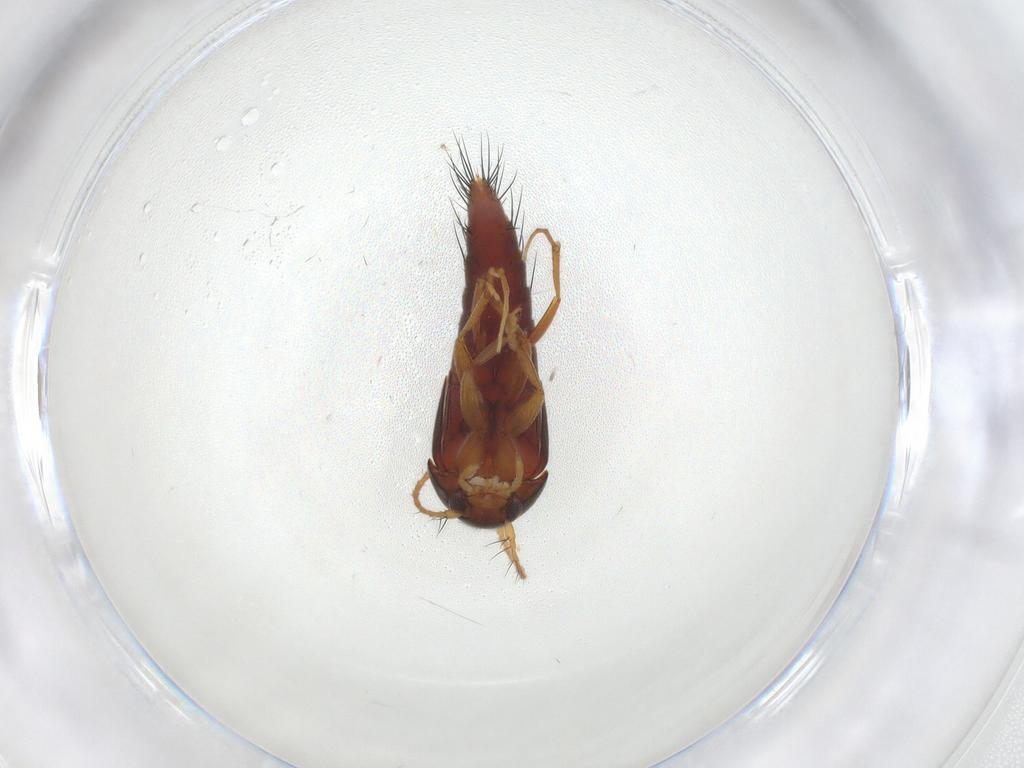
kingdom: Animalia
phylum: Arthropoda
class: Insecta
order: Coleoptera
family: Staphylinidae
